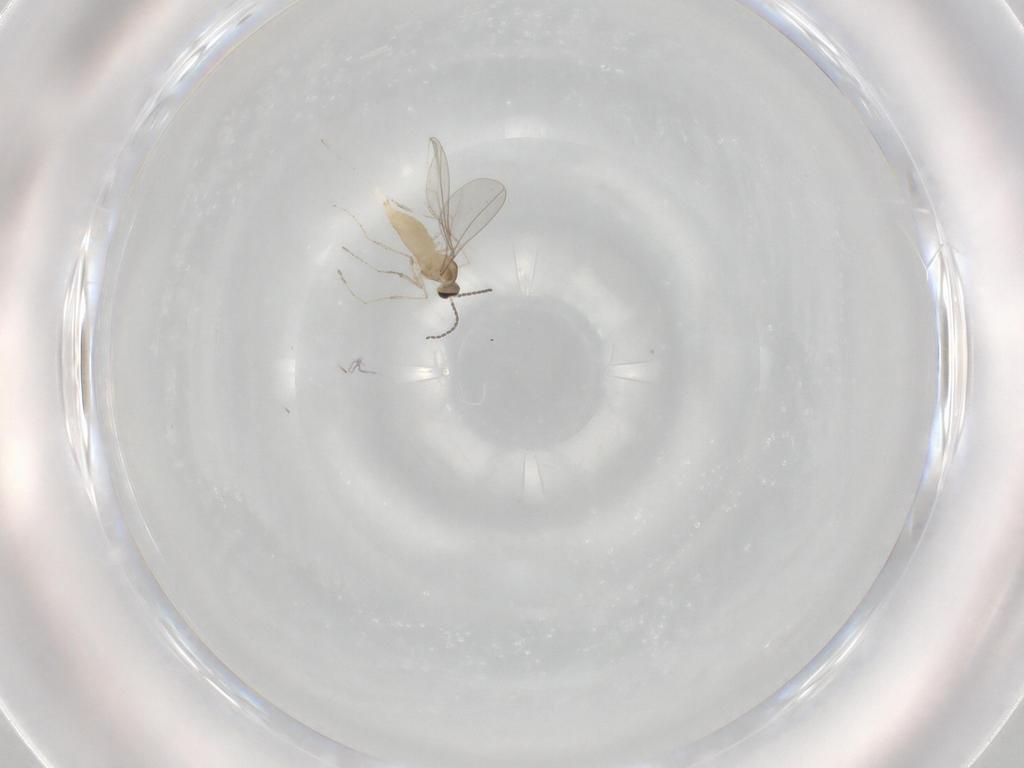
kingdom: Animalia
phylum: Arthropoda
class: Insecta
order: Diptera
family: Cecidomyiidae
